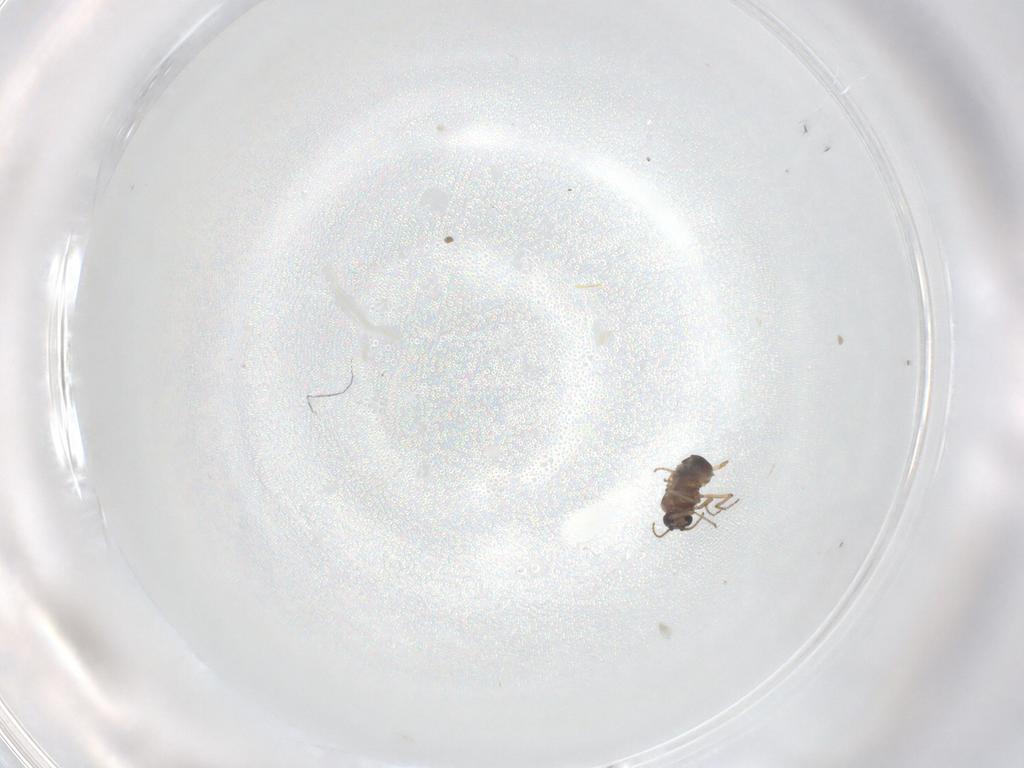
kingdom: Animalia
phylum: Arthropoda
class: Insecta
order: Diptera
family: Ceratopogonidae
